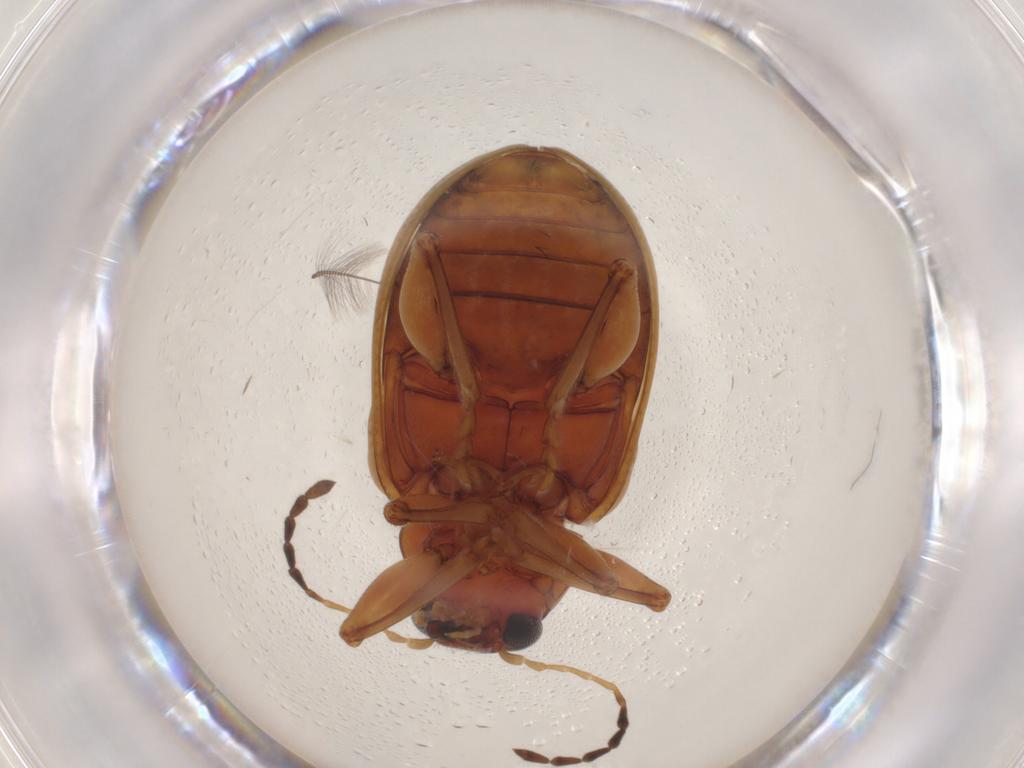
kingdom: Animalia
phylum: Arthropoda
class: Insecta
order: Coleoptera
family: Chrysomelidae
